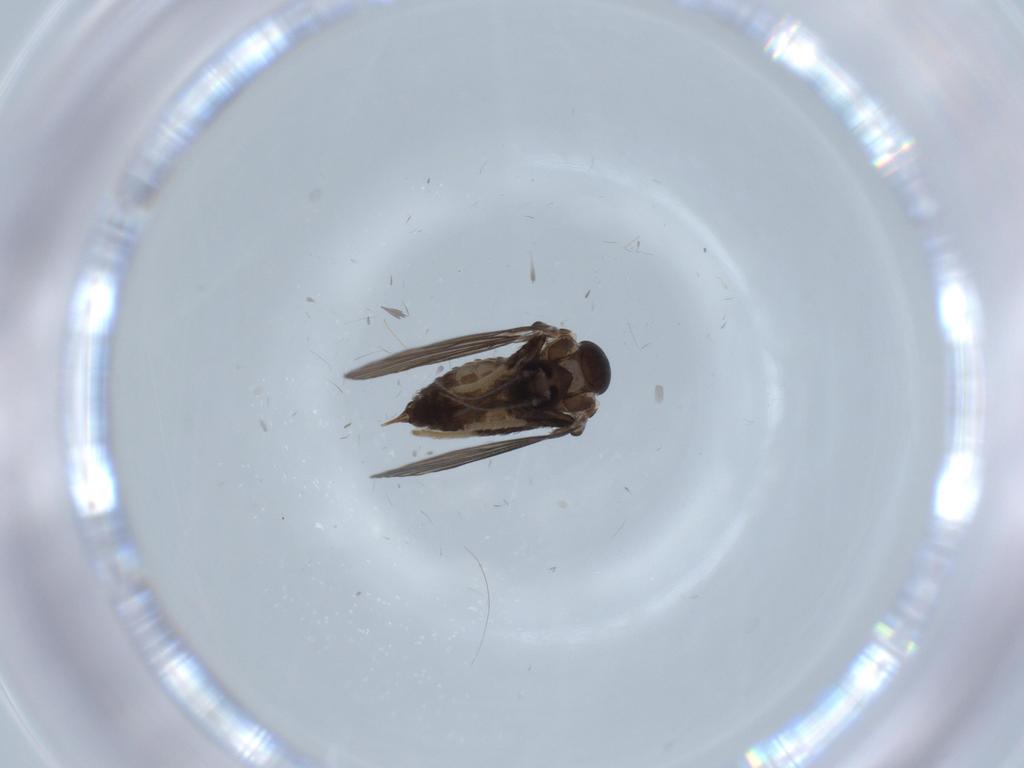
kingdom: Animalia
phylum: Arthropoda
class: Insecta
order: Diptera
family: Psychodidae
